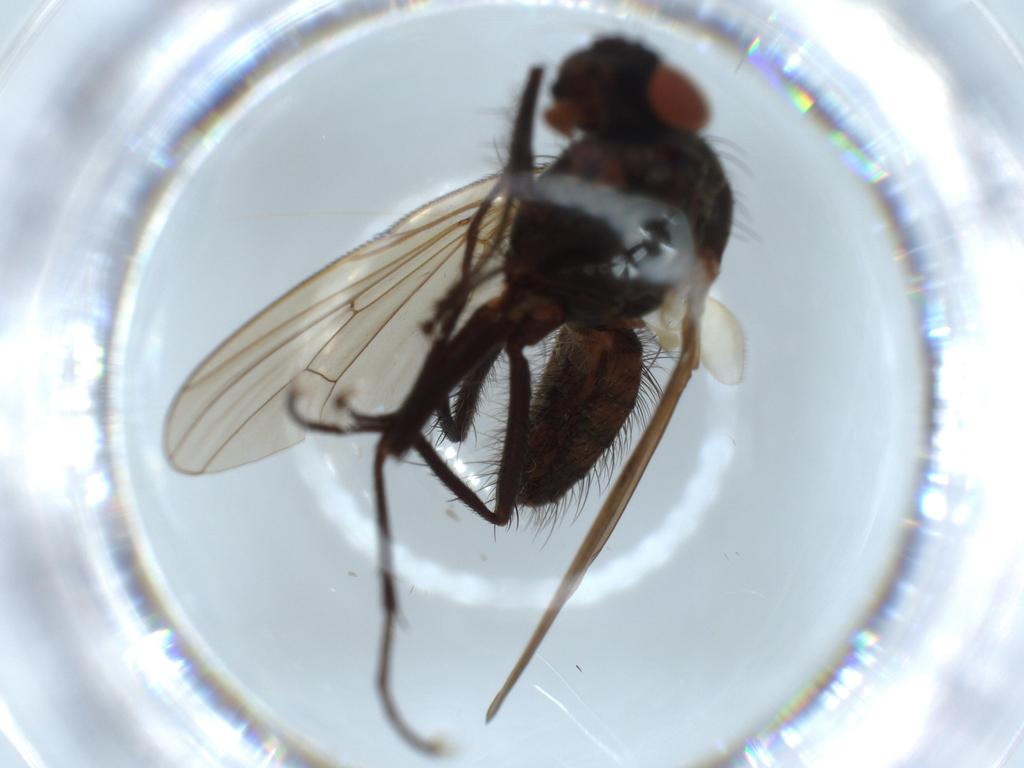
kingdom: Animalia
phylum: Arthropoda
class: Insecta
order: Diptera
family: Anthomyiidae
